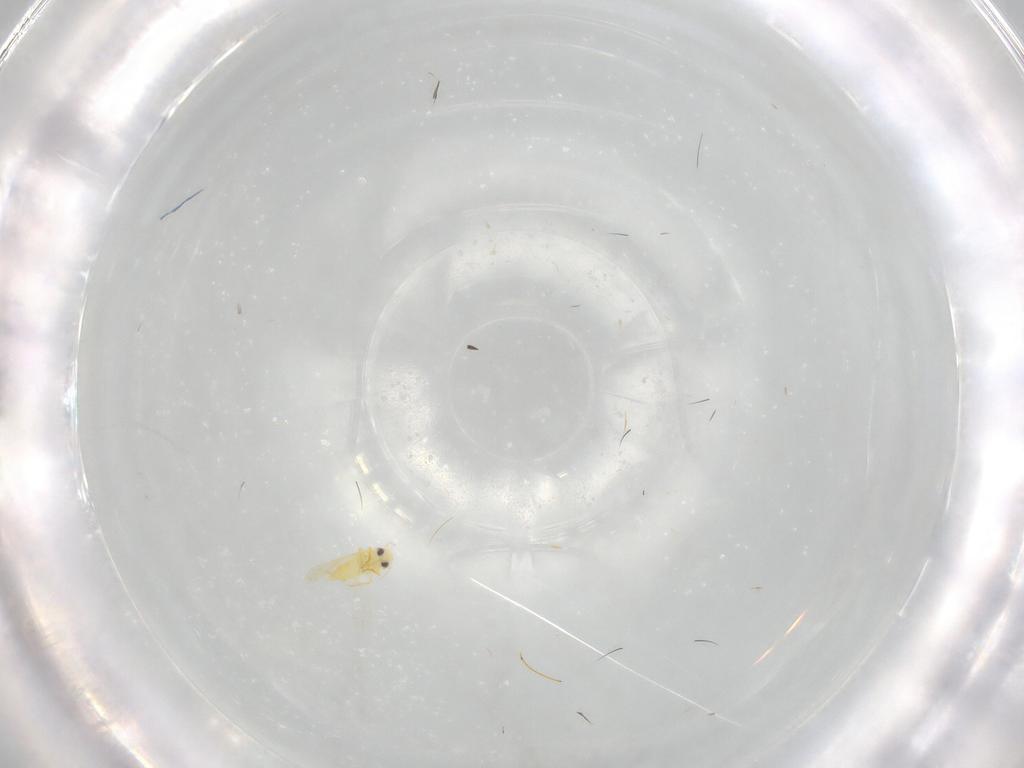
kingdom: Animalia
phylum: Arthropoda
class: Insecta
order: Hemiptera
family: Aleyrodidae
